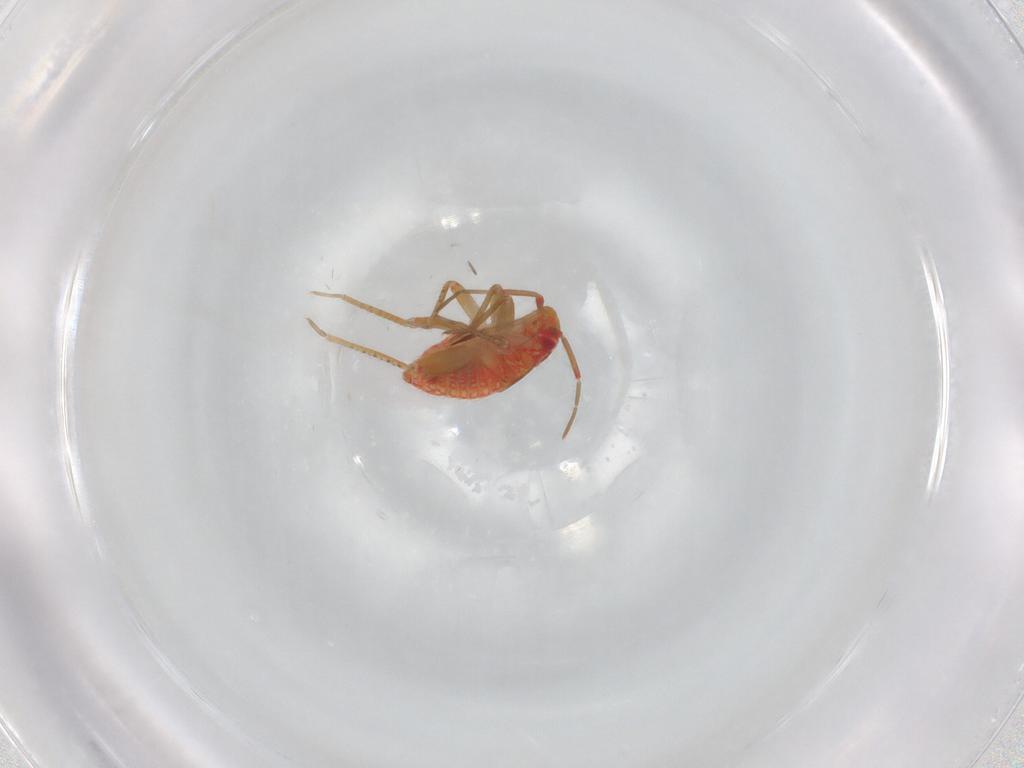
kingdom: Animalia
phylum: Arthropoda
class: Insecta
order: Hemiptera
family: Miridae
